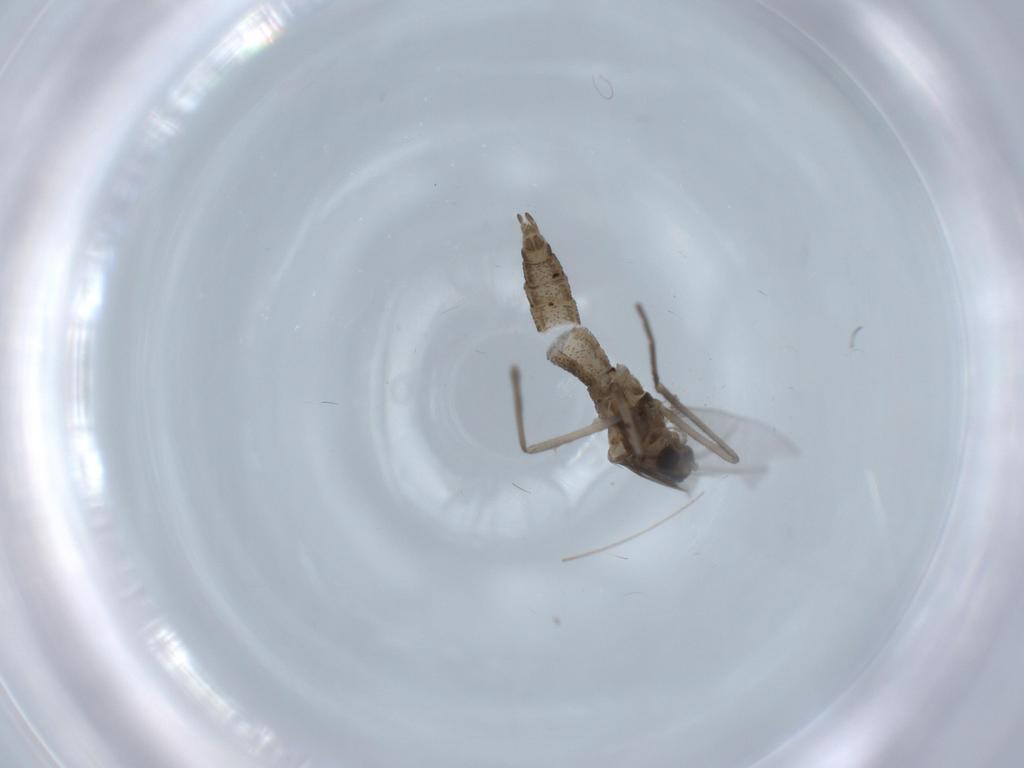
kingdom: Animalia
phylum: Arthropoda
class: Insecta
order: Diptera
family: Cecidomyiidae
